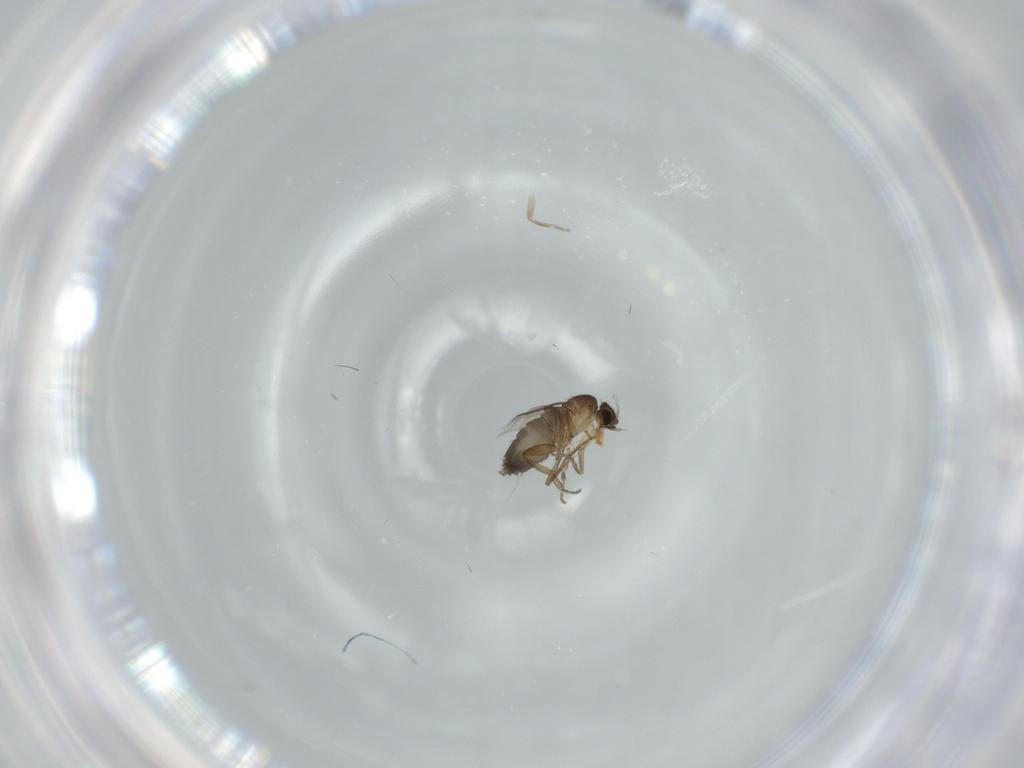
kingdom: Animalia
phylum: Arthropoda
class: Insecta
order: Diptera
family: Phoridae
